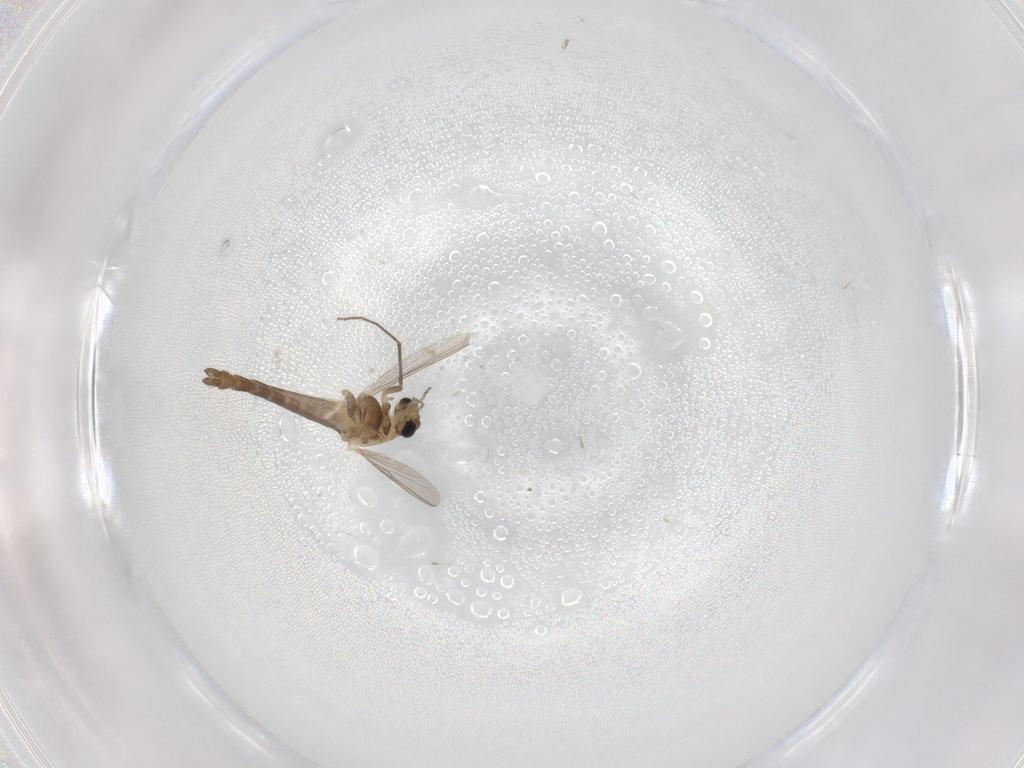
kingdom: Animalia
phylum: Arthropoda
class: Insecta
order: Diptera
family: Chironomidae
